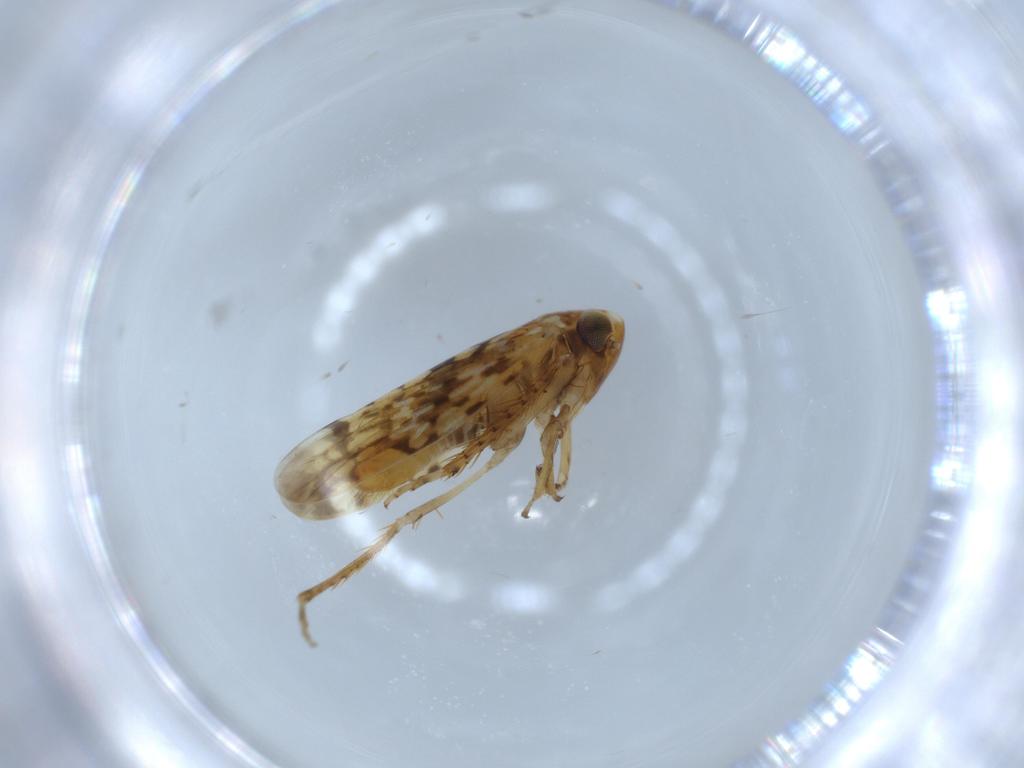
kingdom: Animalia
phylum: Arthropoda
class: Insecta
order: Hemiptera
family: Cicadellidae
